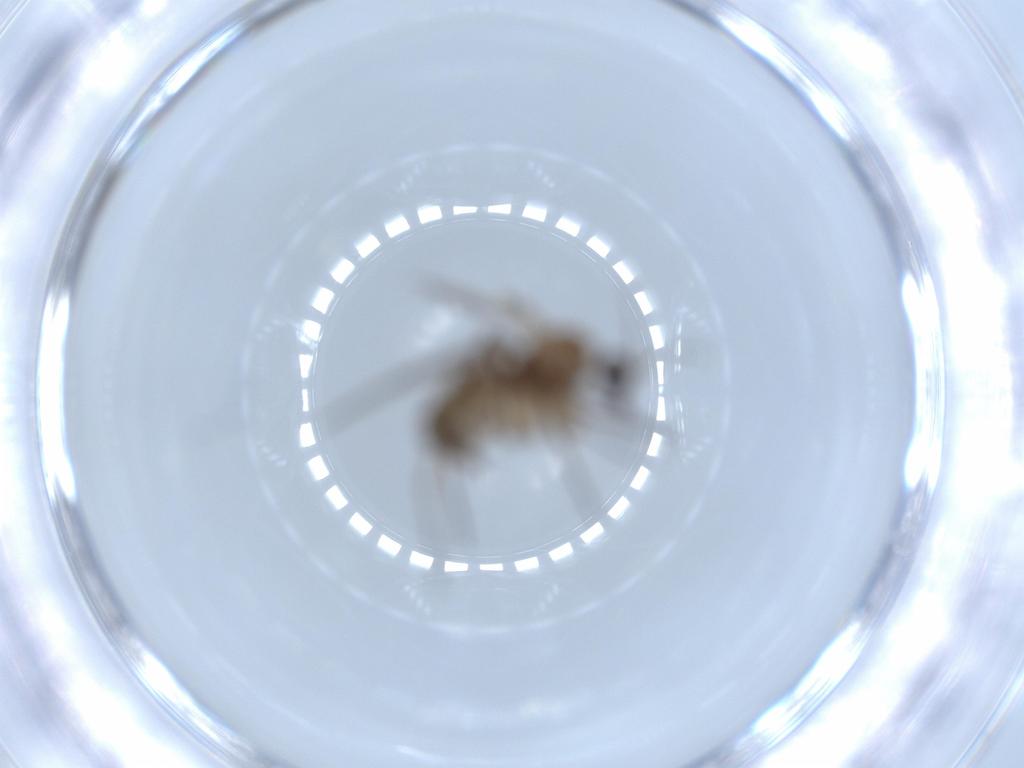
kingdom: Animalia
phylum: Arthropoda
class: Insecta
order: Diptera
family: Sciaridae
